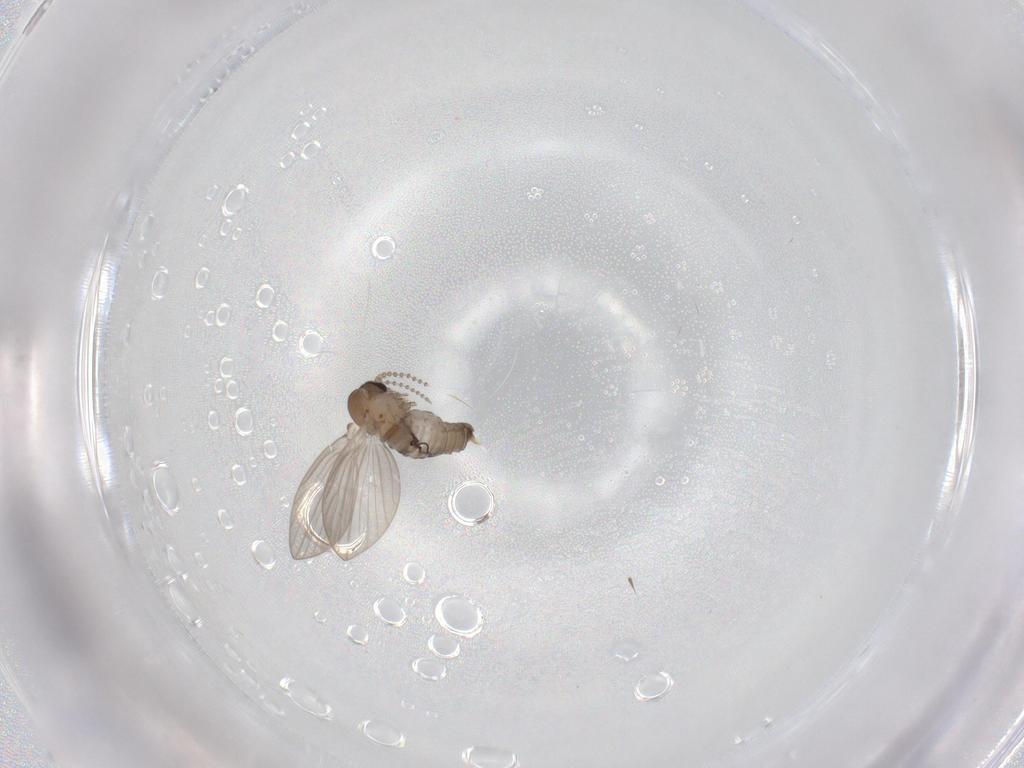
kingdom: Animalia
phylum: Arthropoda
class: Insecta
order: Diptera
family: Psychodidae
